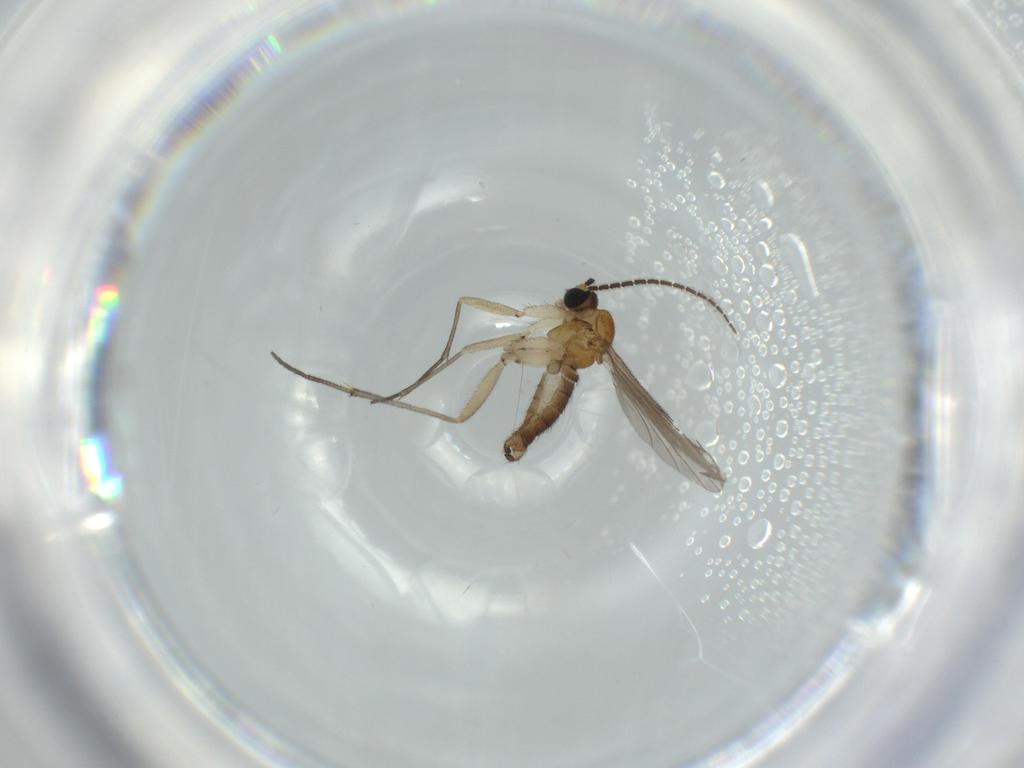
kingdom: Animalia
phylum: Arthropoda
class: Insecta
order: Diptera
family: Sciaridae
